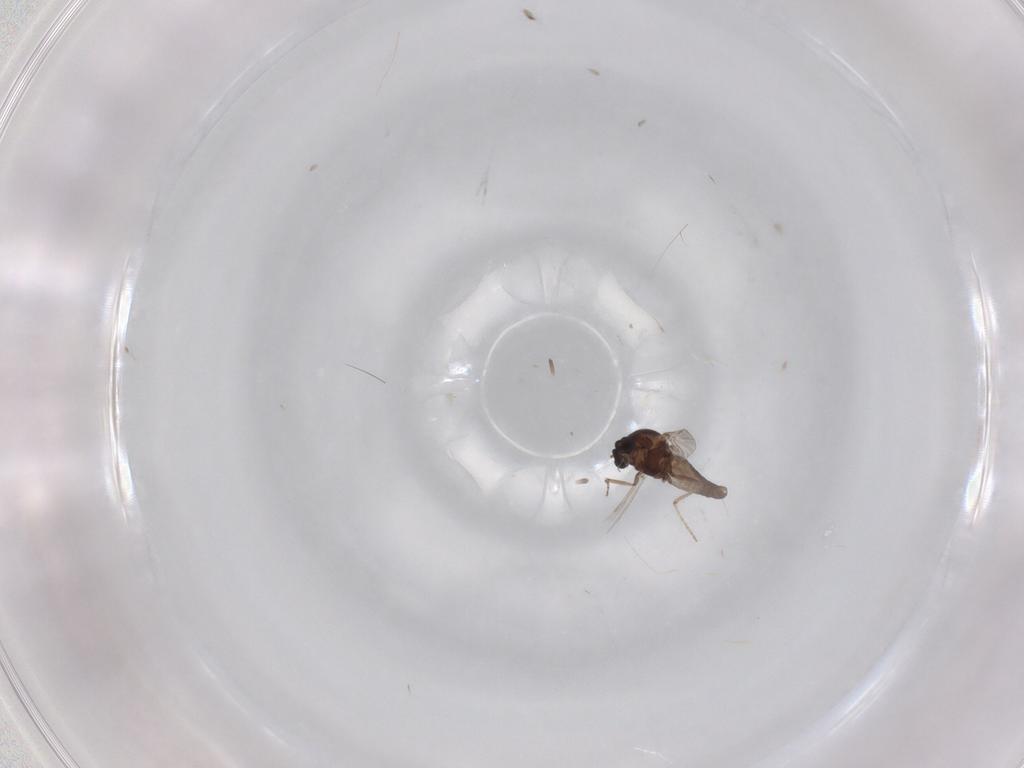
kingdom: Animalia
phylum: Arthropoda
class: Insecta
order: Diptera
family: Ceratopogonidae
